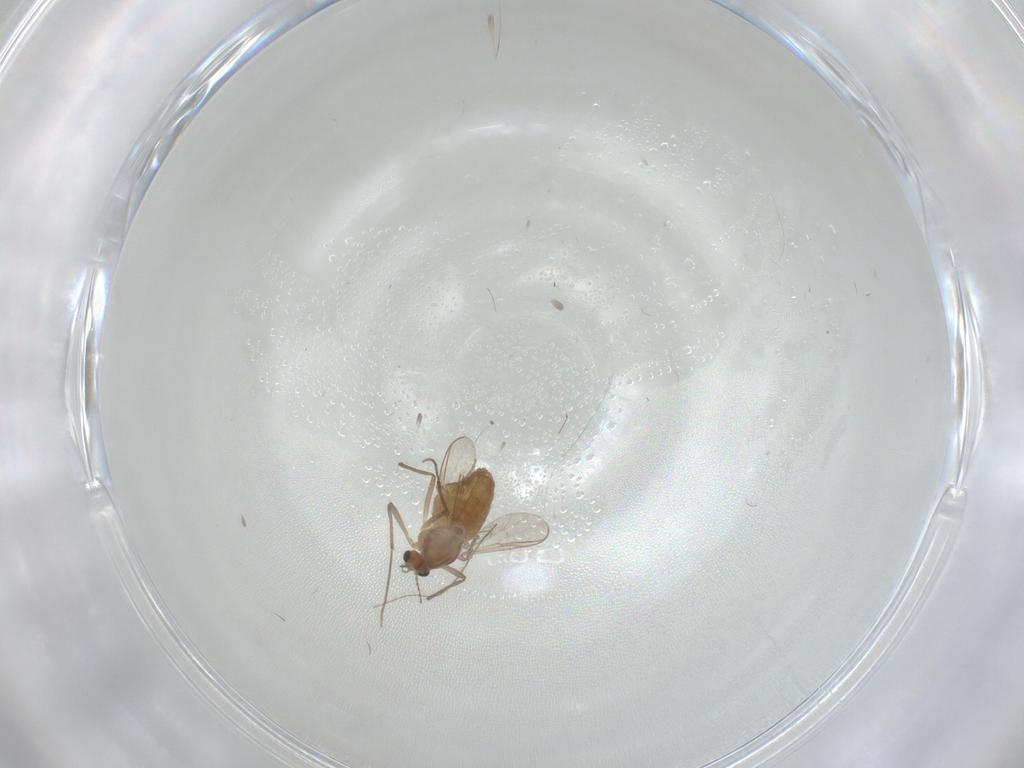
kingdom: Animalia
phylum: Arthropoda
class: Insecta
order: Diptera
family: Chironomidae
